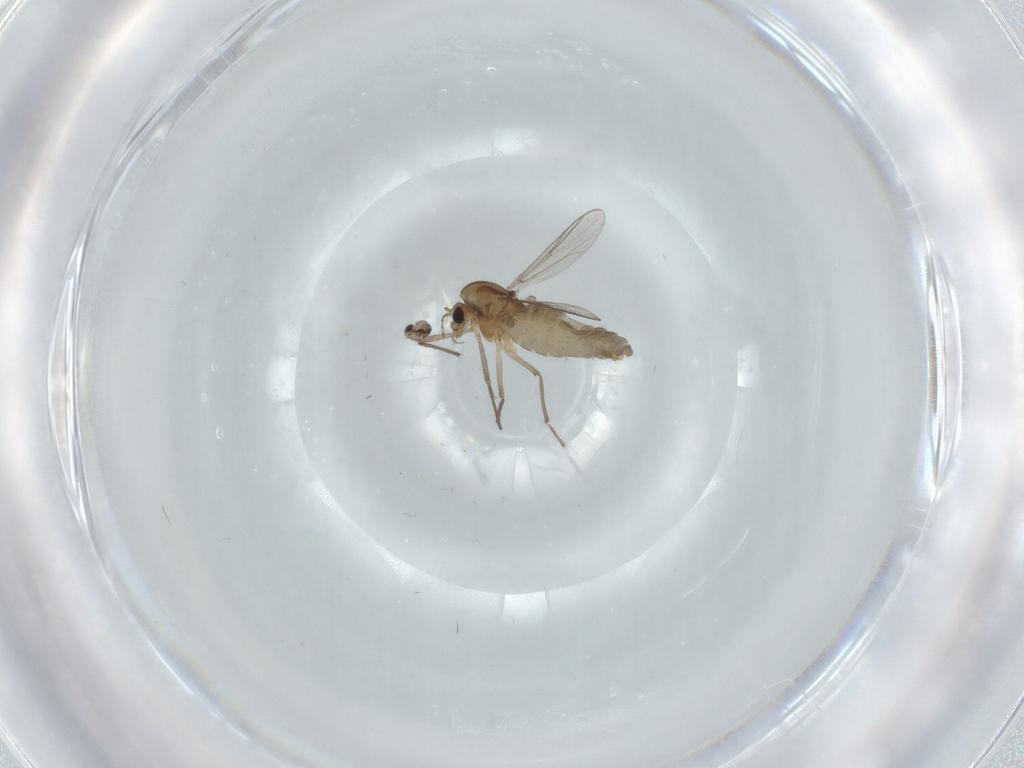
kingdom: Animalia
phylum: Arthropoda
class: Insecta
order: Diptera
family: Chironomidae
